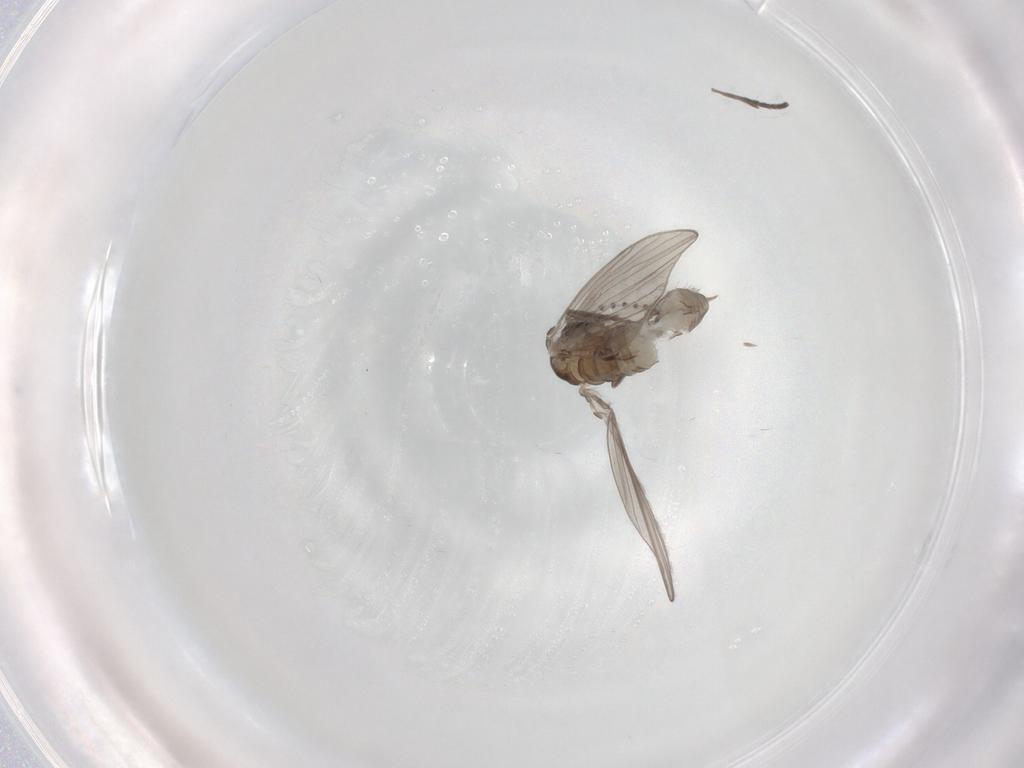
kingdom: Animalia
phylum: Arthropoda
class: Insecta
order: Diptera
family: Psychodidae
